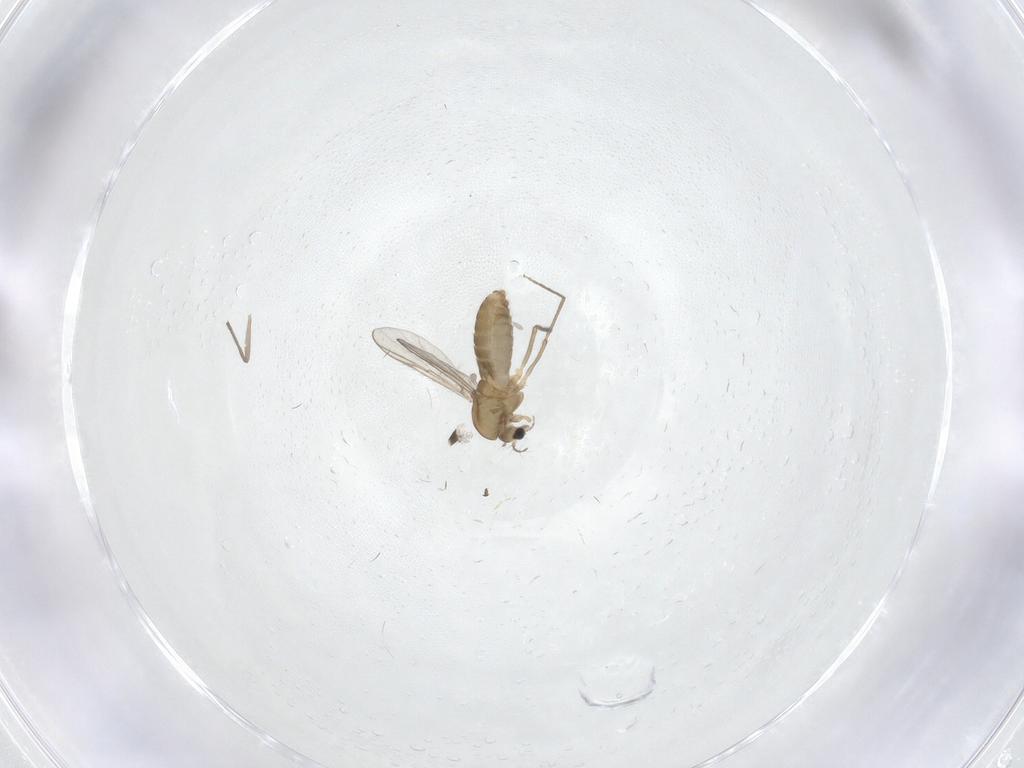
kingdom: Animalia
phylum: Arthropoda
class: Insecta
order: Diptera
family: Chironomidae
